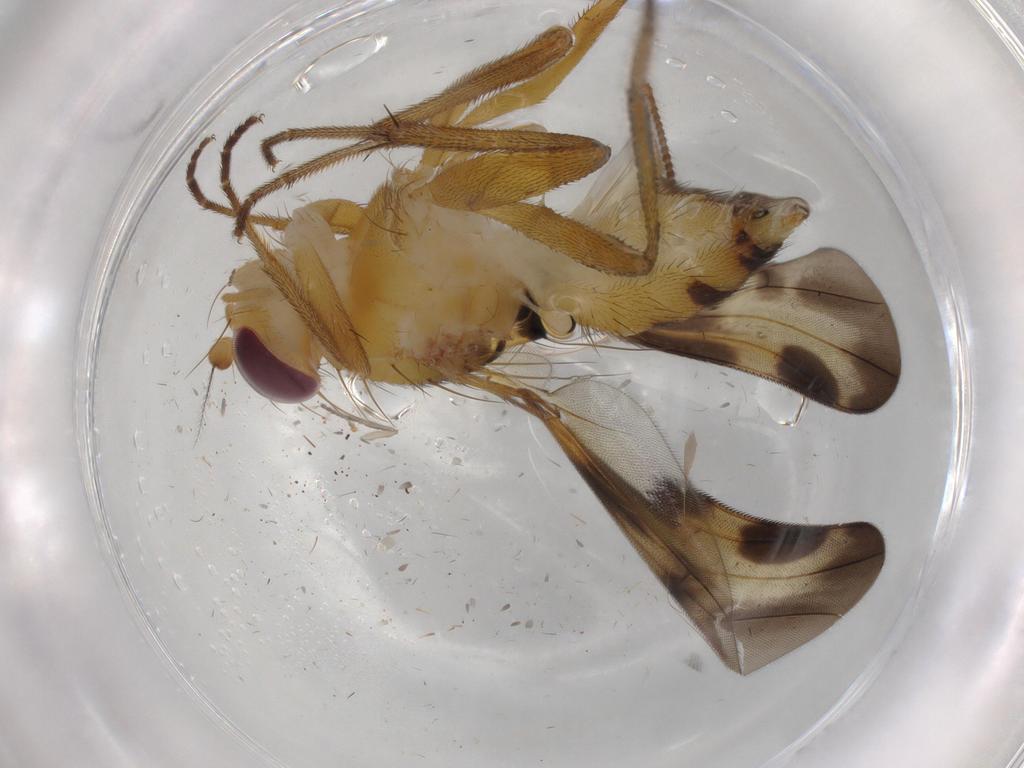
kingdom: Animalia
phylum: Arthropoda
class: Insecta
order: Diptera
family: Clusiidae
